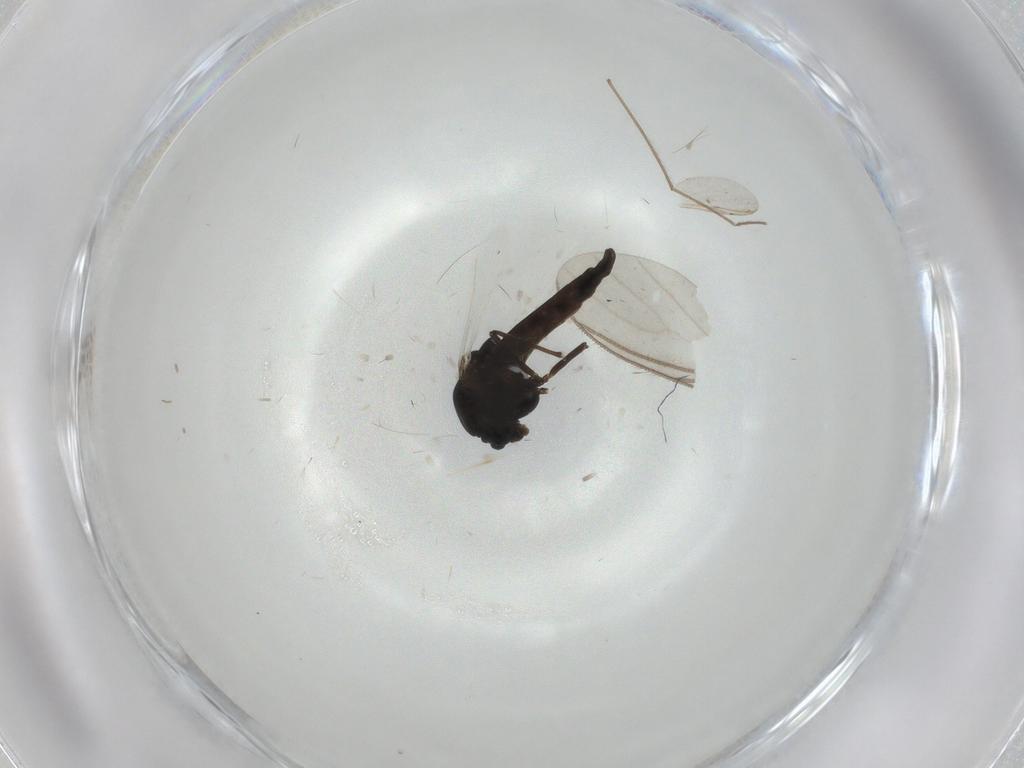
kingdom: Animalia
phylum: Arthropoda
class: Insecta
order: Diptera
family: Chironomidae
